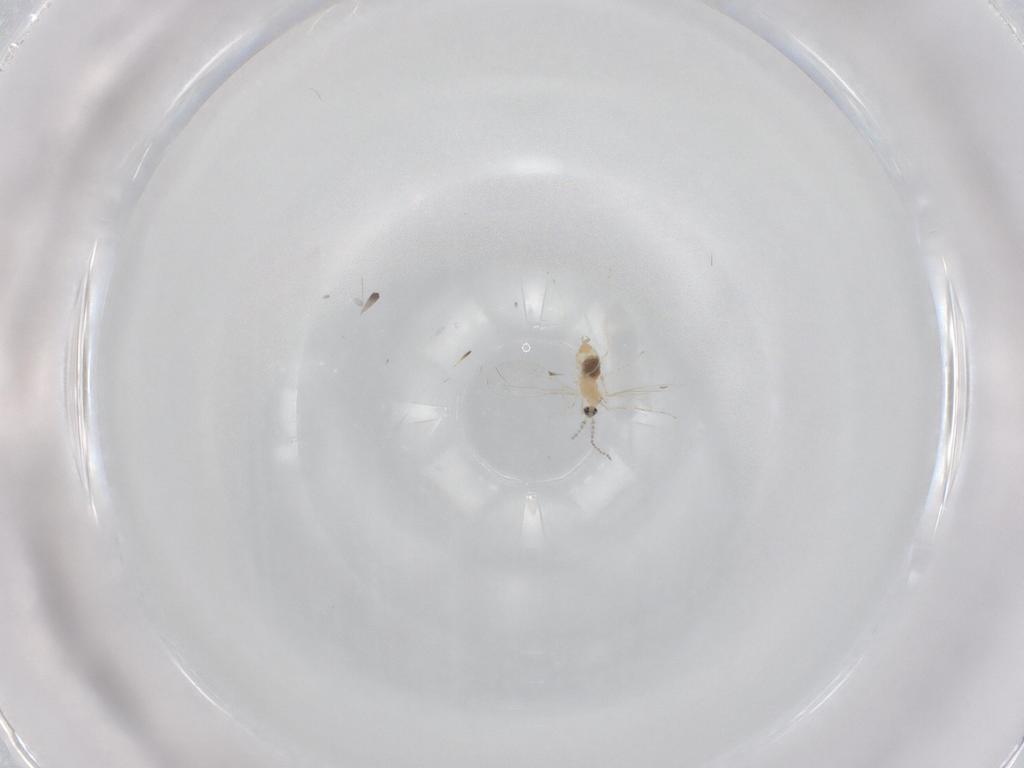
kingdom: Animalia
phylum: Arthropoda
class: Insecta
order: Diptera
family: Cecidomyiidae
